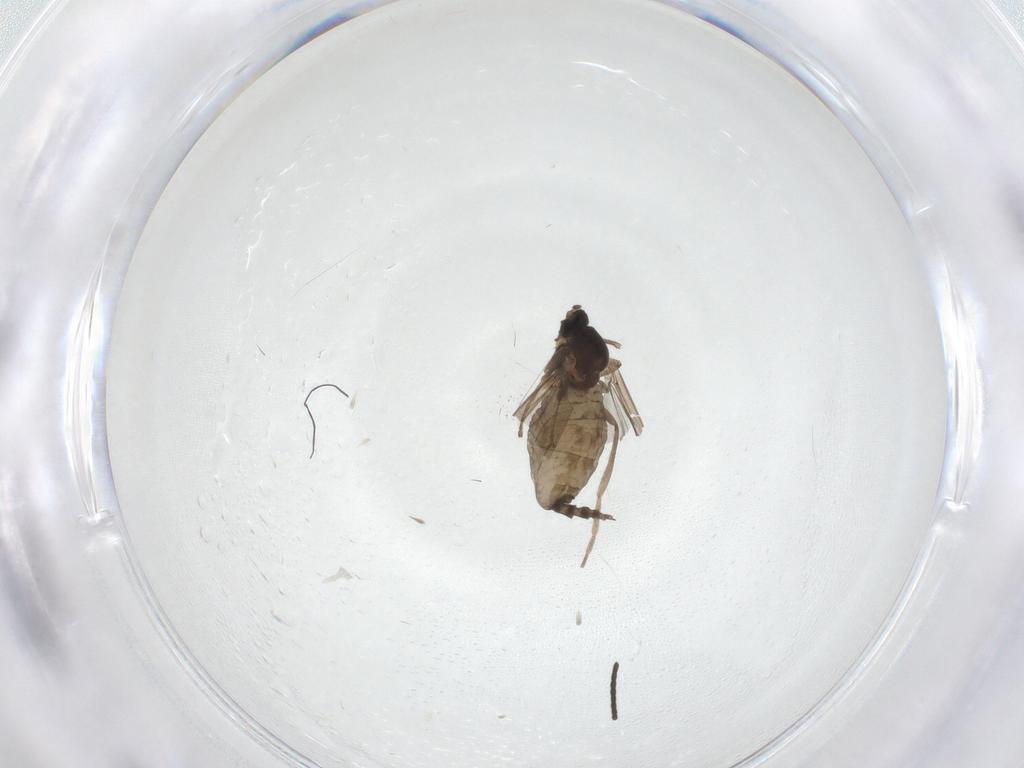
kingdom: Animalia
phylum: Arthropoda
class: Insecta
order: Diptera
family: Cecidomyiidae
